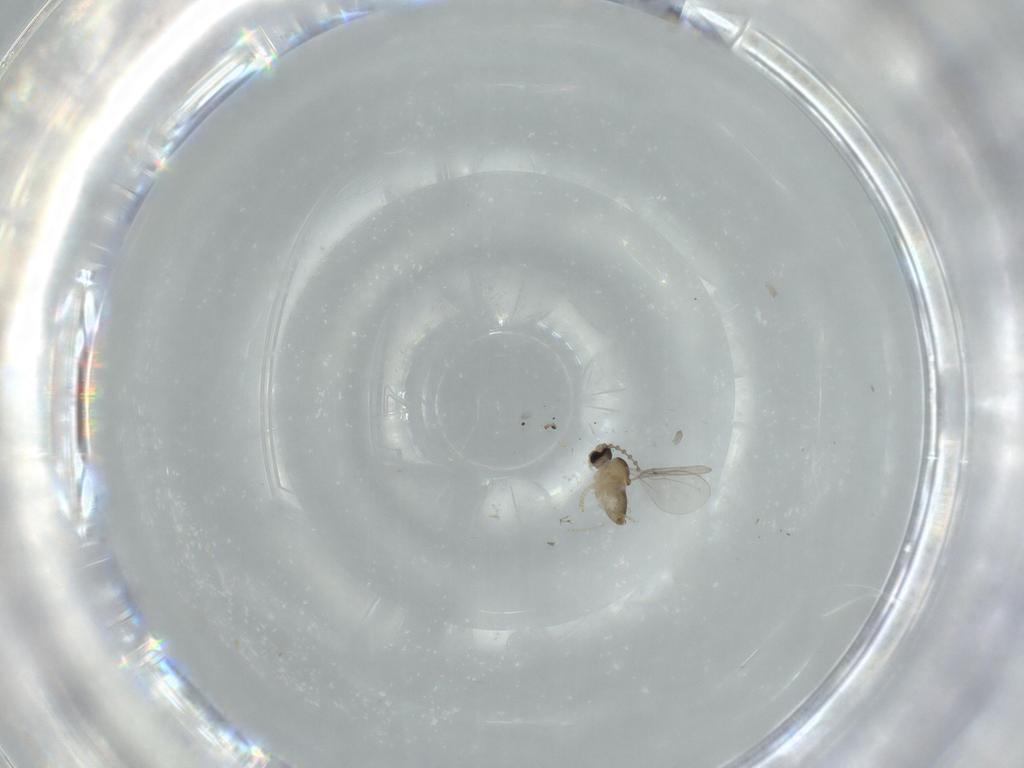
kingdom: Animalia
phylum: Arthropoda
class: Insecta
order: Diptera
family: Cecidomyiidae
